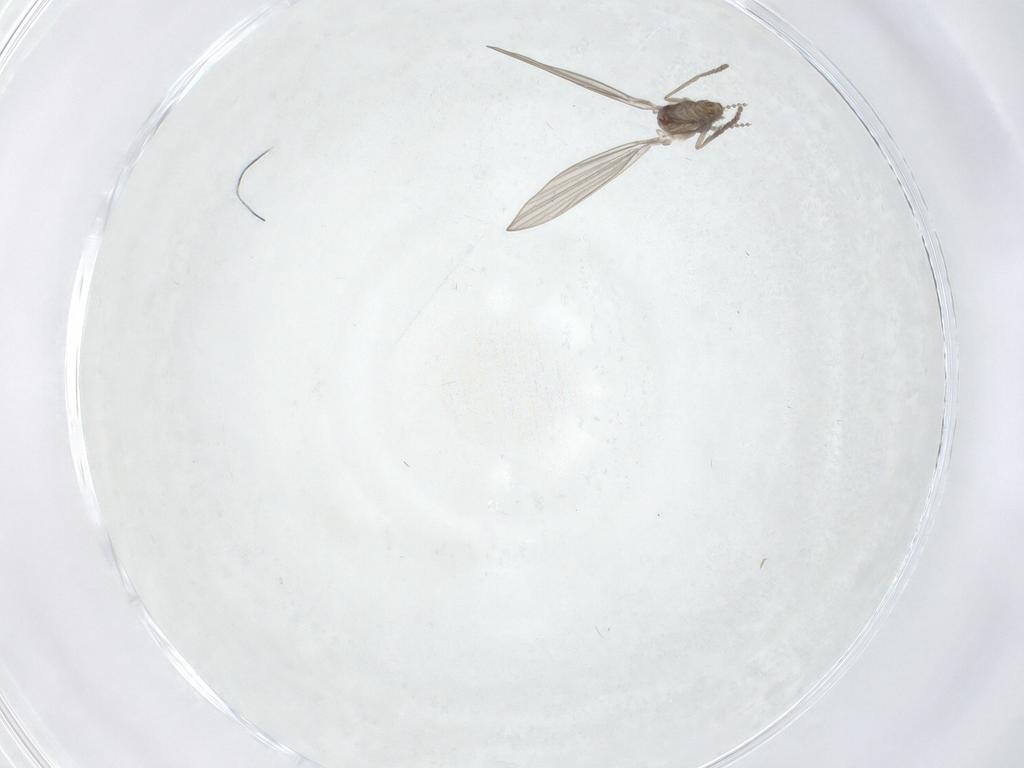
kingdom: Animalia
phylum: Arthropoda
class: Insecta
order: Diptera
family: Psychodidae
